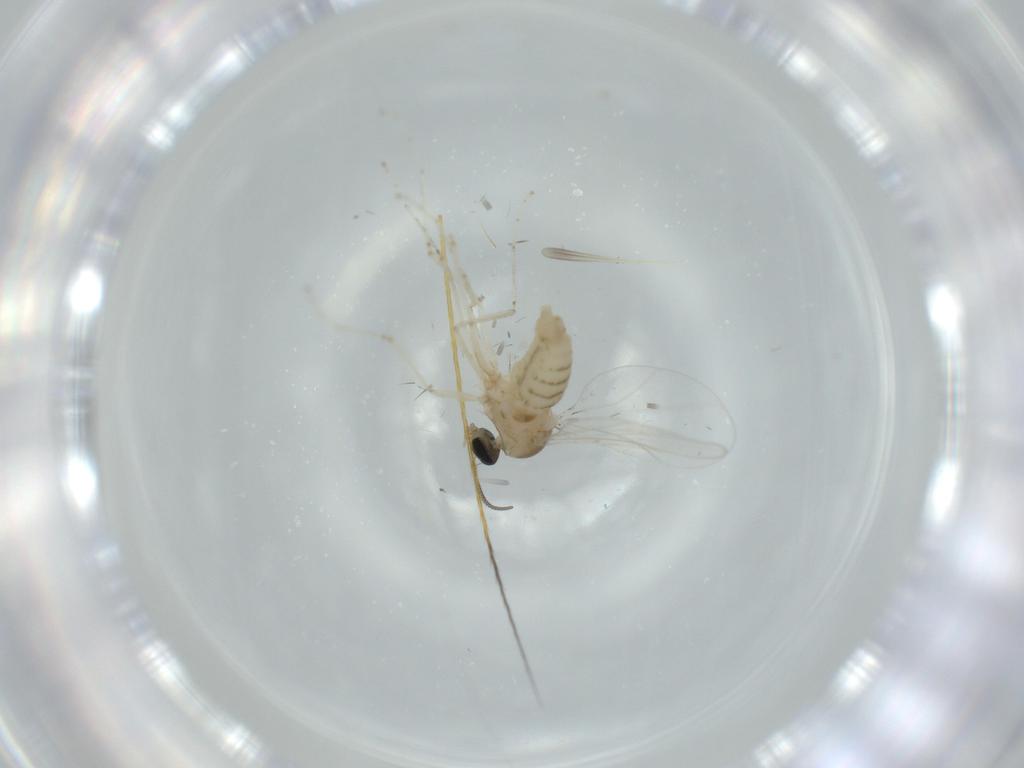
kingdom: Animalia
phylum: Arthropoda
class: Insecta
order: Diptera
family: Cecidomyiidae
